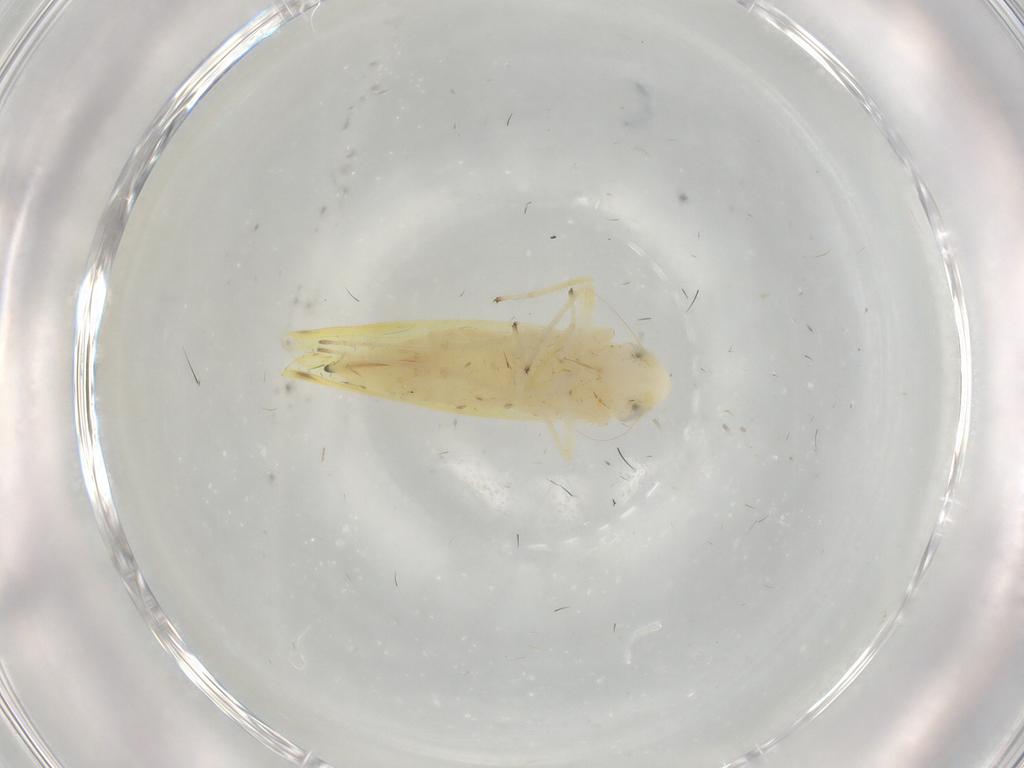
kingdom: Animalia
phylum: Arthropoda
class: Insecta
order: Hemiptera
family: Cicadellidae
